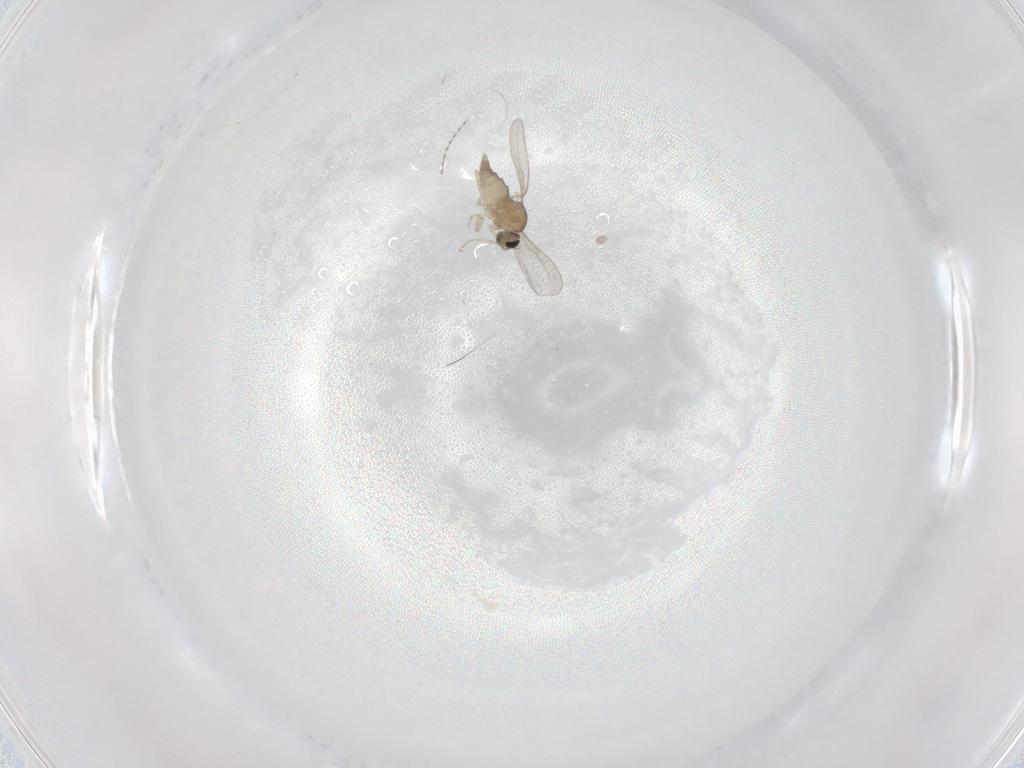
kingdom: Animalia
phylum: Arthropoda
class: Insecta
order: Diptera
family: Cecidomyiidae
